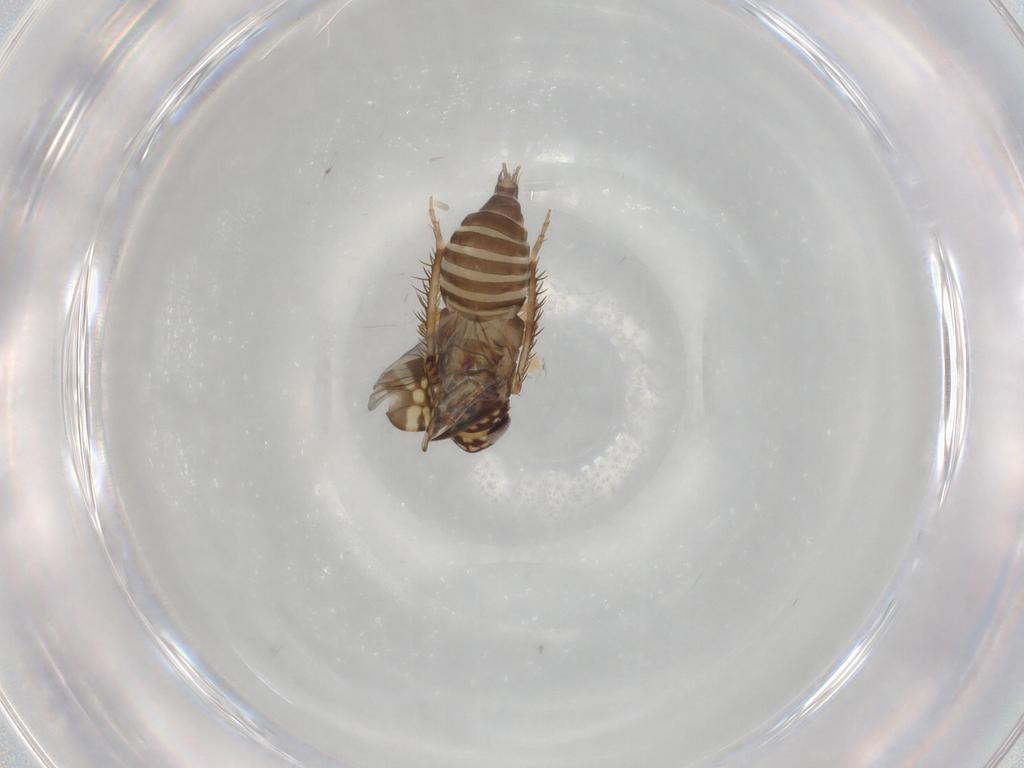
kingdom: Animalia
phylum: Arthropoda
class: Insecta
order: Hemiptera
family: Cicadellidae
